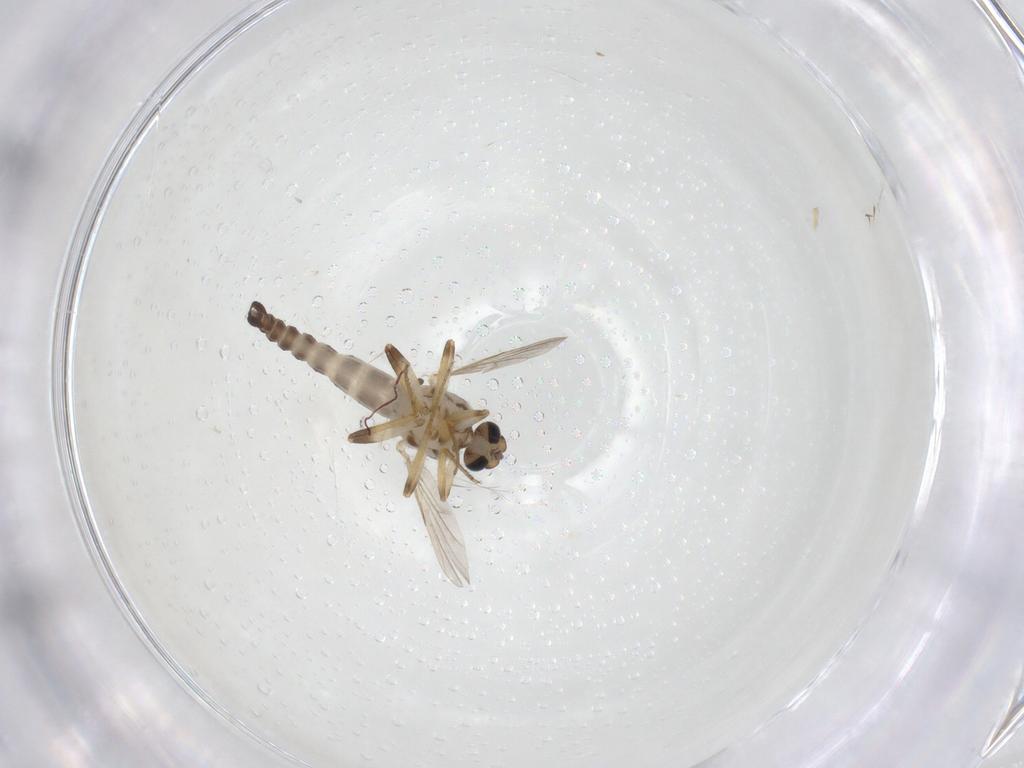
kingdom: Animalia
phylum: Arthropoda
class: Insecta
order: Diptera
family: Ceratopogonidae
